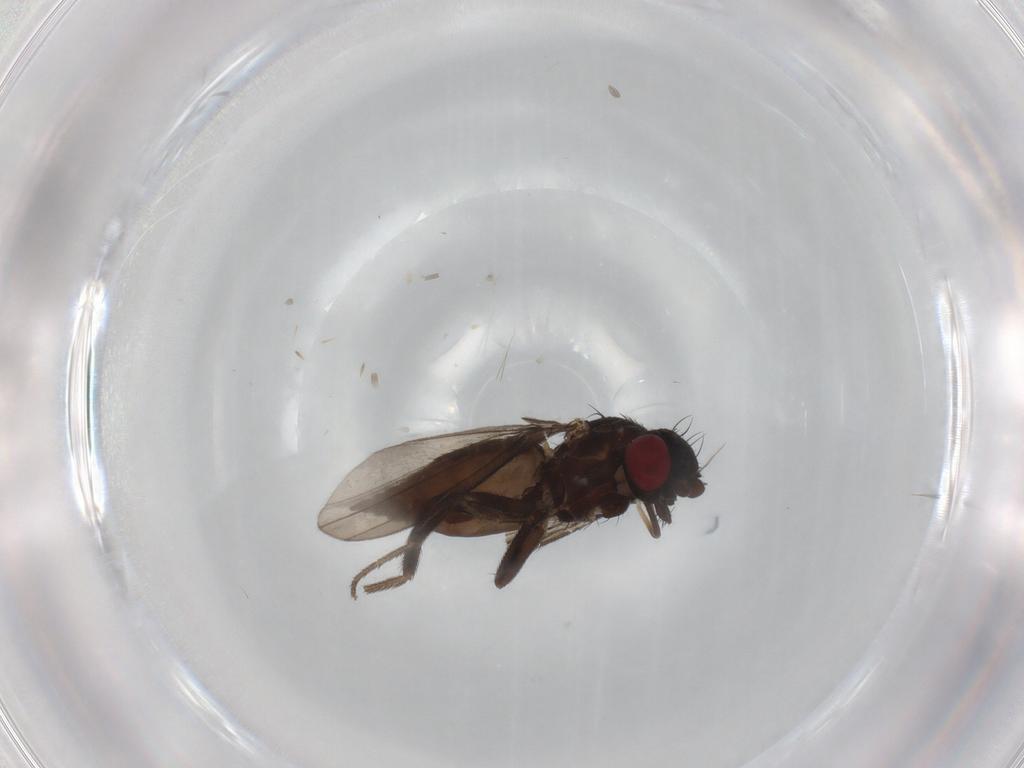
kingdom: Animalia
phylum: Arthropoda
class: Insecta
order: Diptera
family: Milichiidae
